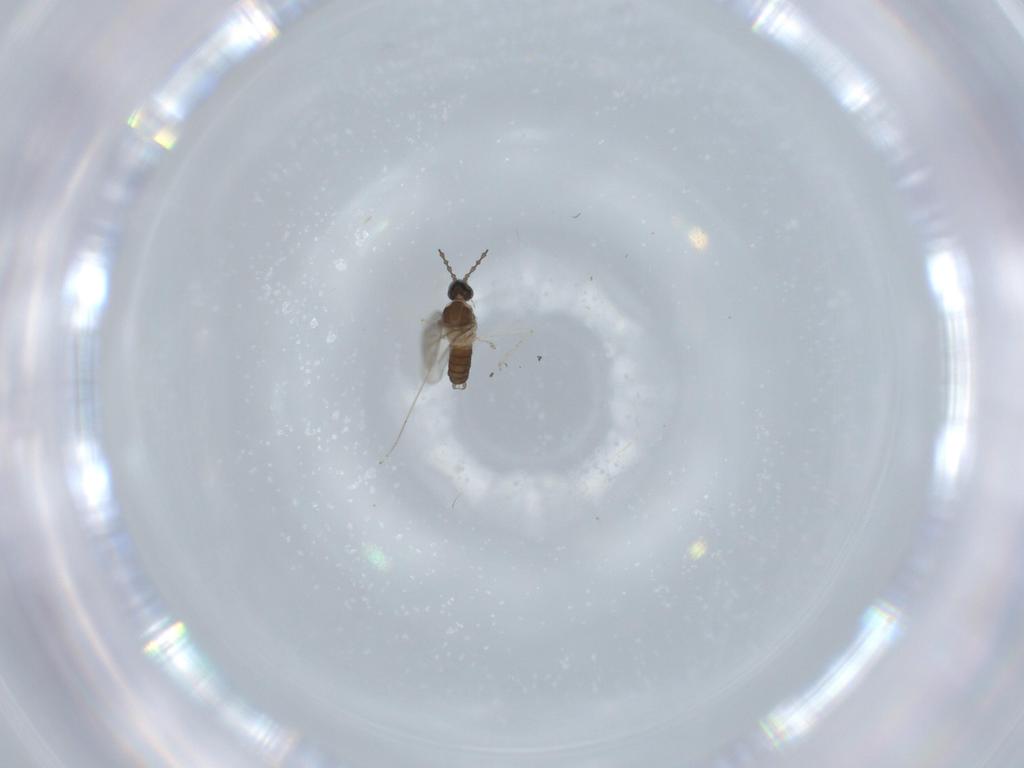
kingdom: Animalia
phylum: Arthropoda
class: Insecta
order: Diptera
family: Cecidomyiidae
